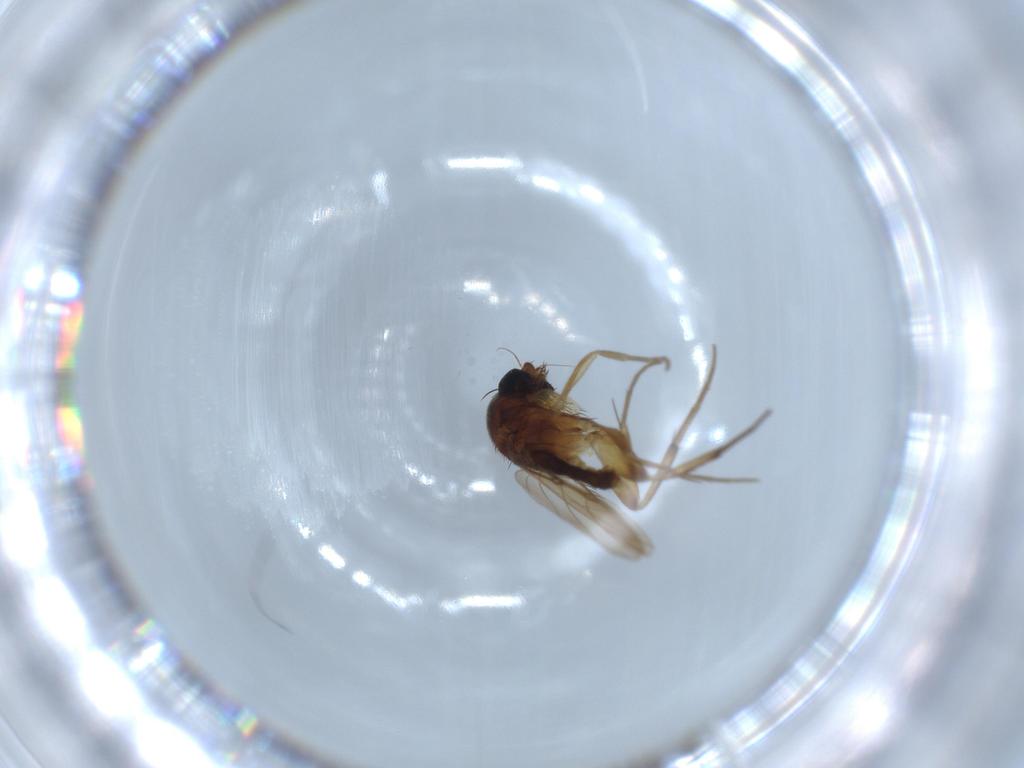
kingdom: Animalia
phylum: Arthropoda
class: Insecta
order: Diptera
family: Phoridae
